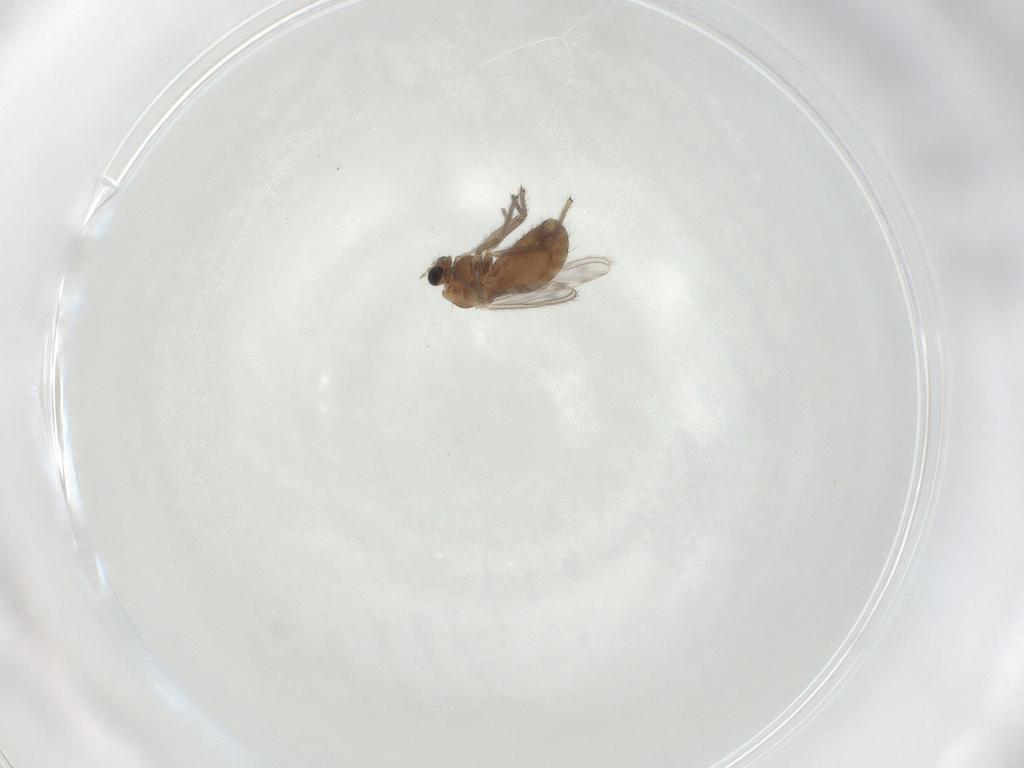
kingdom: Animalia
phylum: Arthropoda
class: Insecta
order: Diptera
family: Chironomidae
